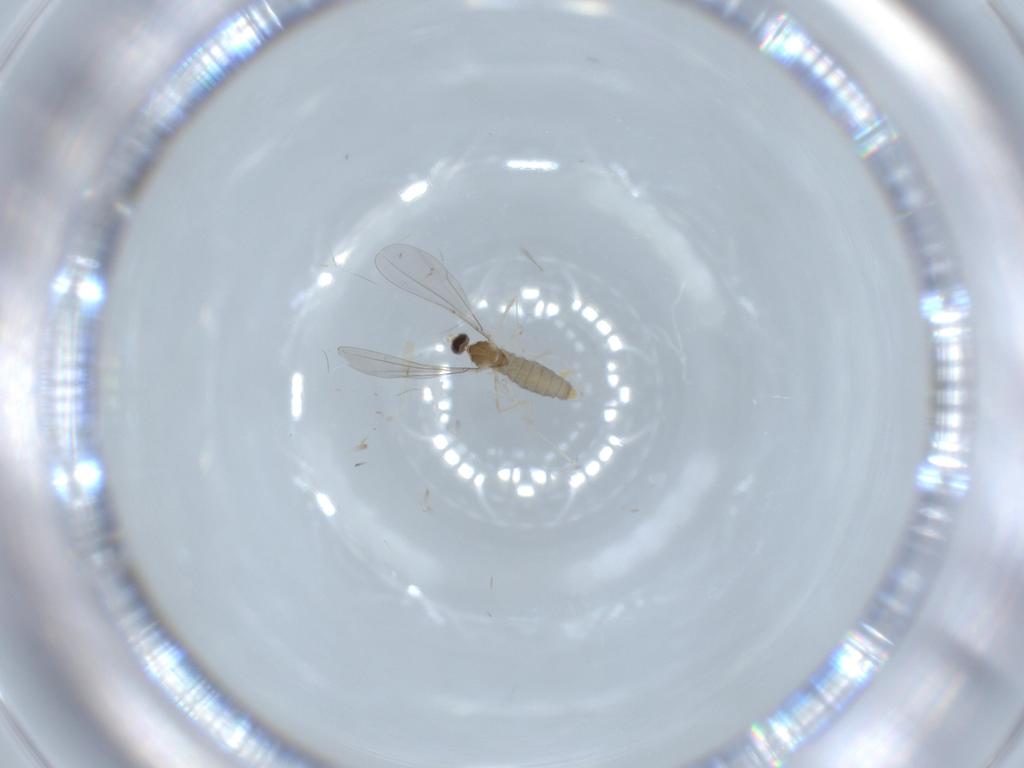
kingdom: Animalia
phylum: Arthropoda
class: Insecta
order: Diptera
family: Cecidomyiidae
